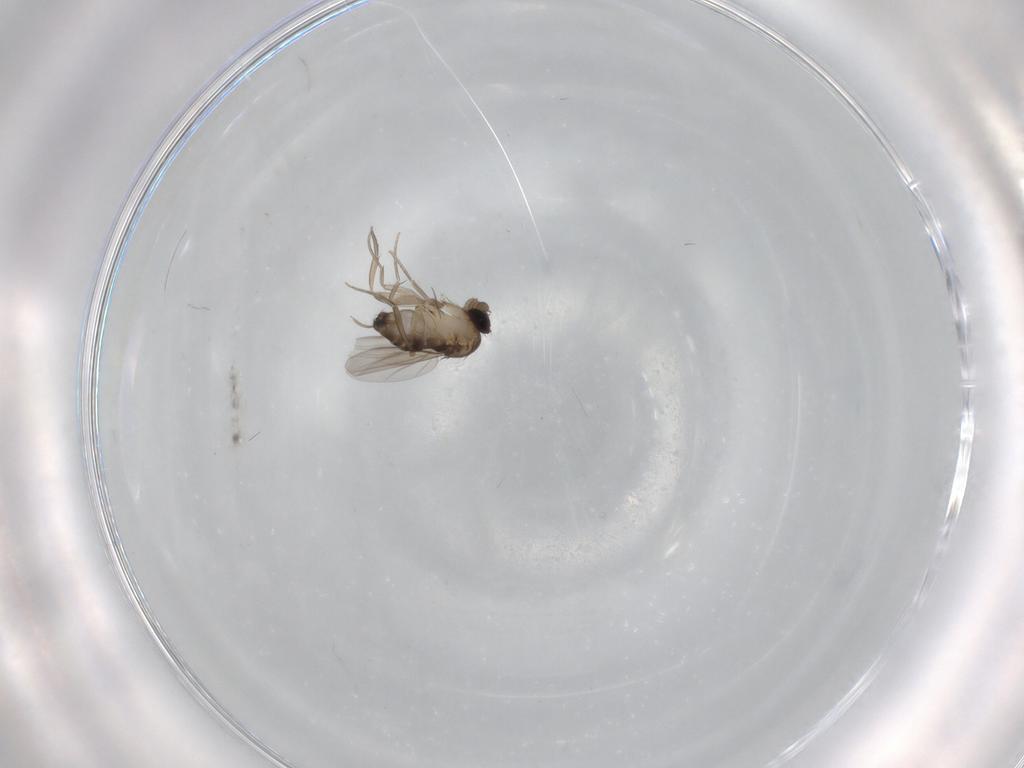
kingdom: Animalia
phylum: Arthropoda
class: Insecta
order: Diptera
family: Phoridae
